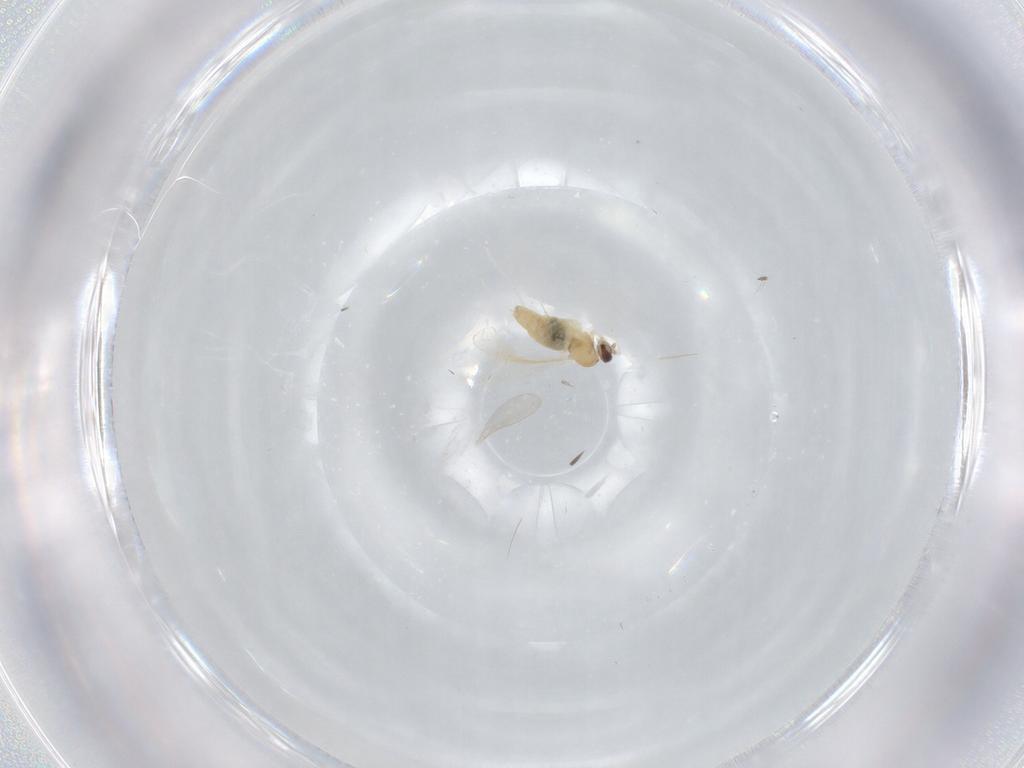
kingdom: Animalia
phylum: Arthropoda
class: Insecta
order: Diptera
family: Cecidomyiidae
